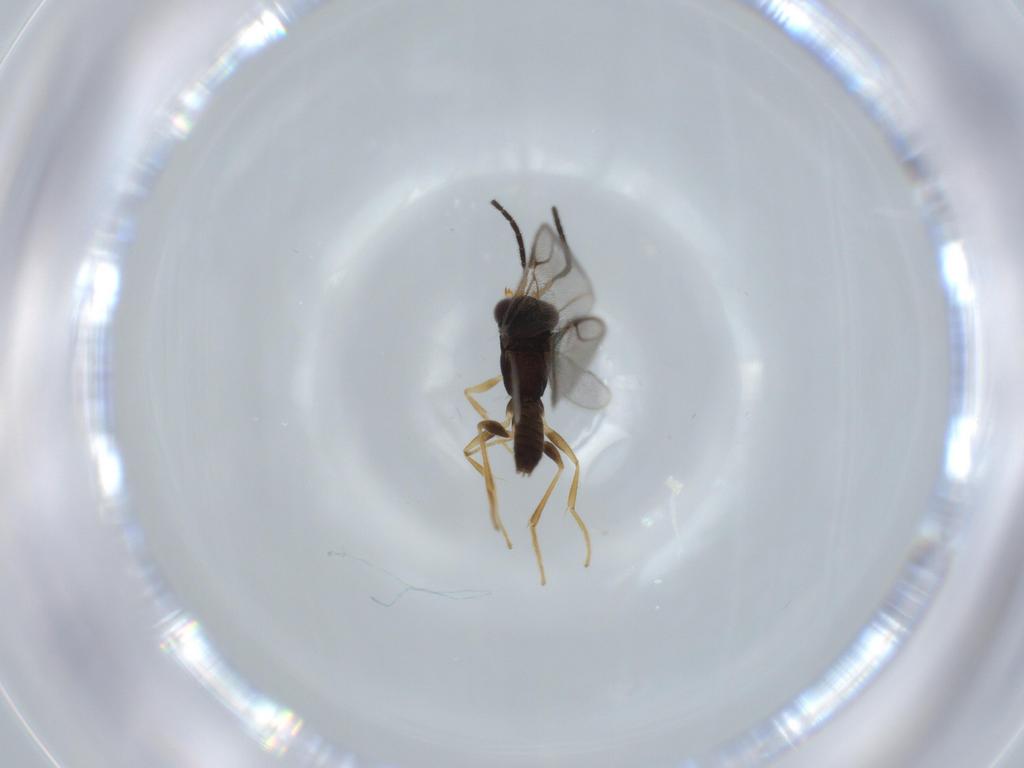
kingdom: Animalia
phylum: Arthropoda
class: Insecta
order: Hymenoptera
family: Dryinidae
